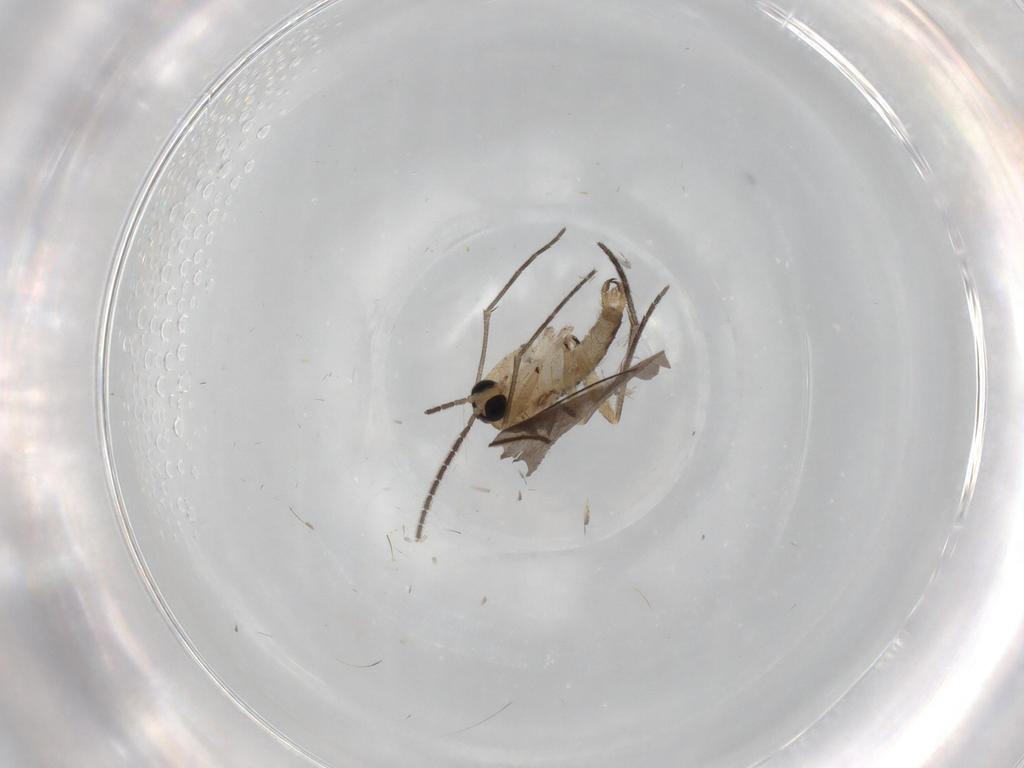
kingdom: Animalia
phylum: Arthropoda
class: Insecta
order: Diptera
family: Sciaridae
